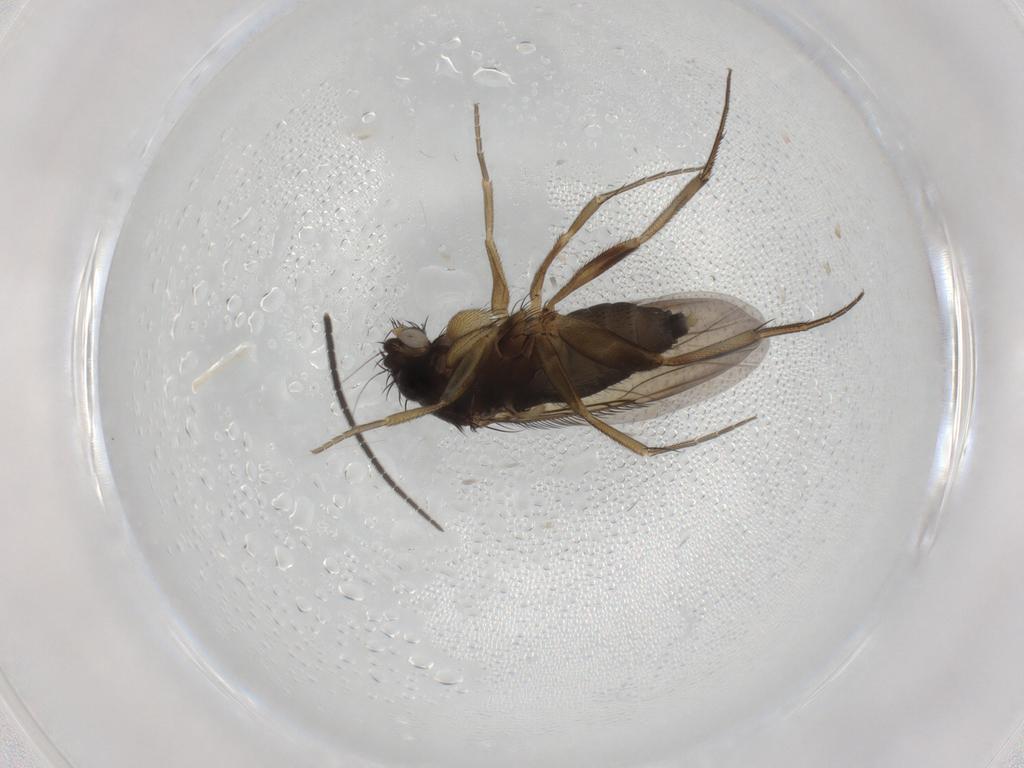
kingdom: Animalia
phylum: Arthropoda
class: Insecta
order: Diptera
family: Phoridae
